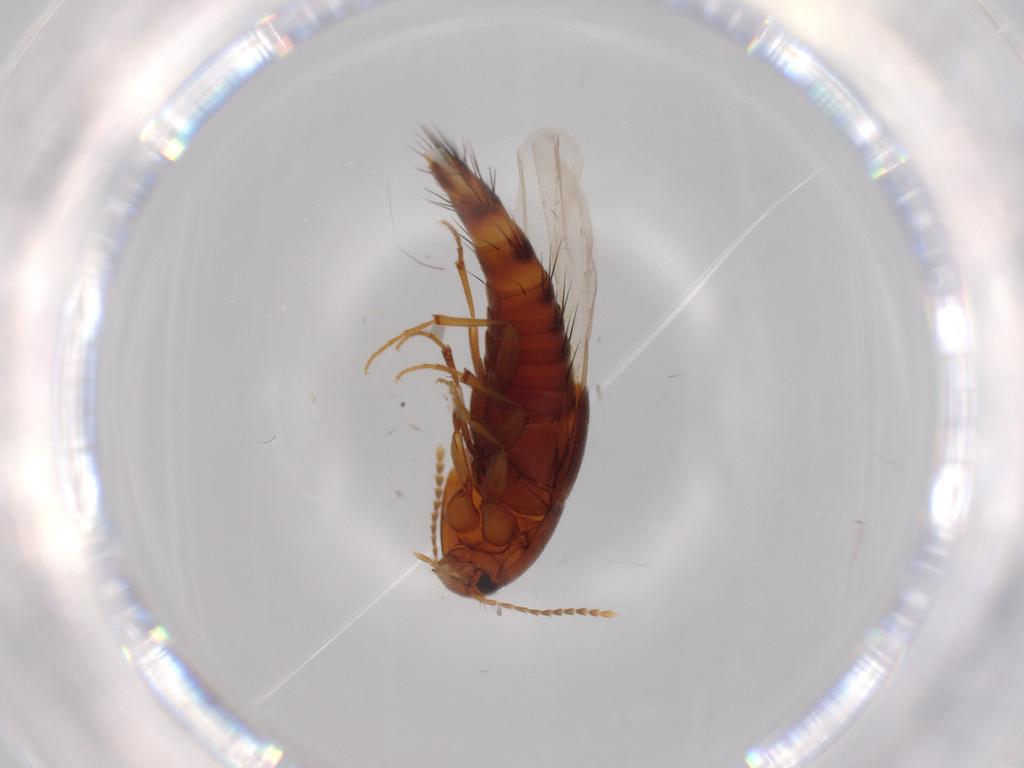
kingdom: Animalia
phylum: Arthropoda
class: Insecta
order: Coleoptera
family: Staphylinidae
